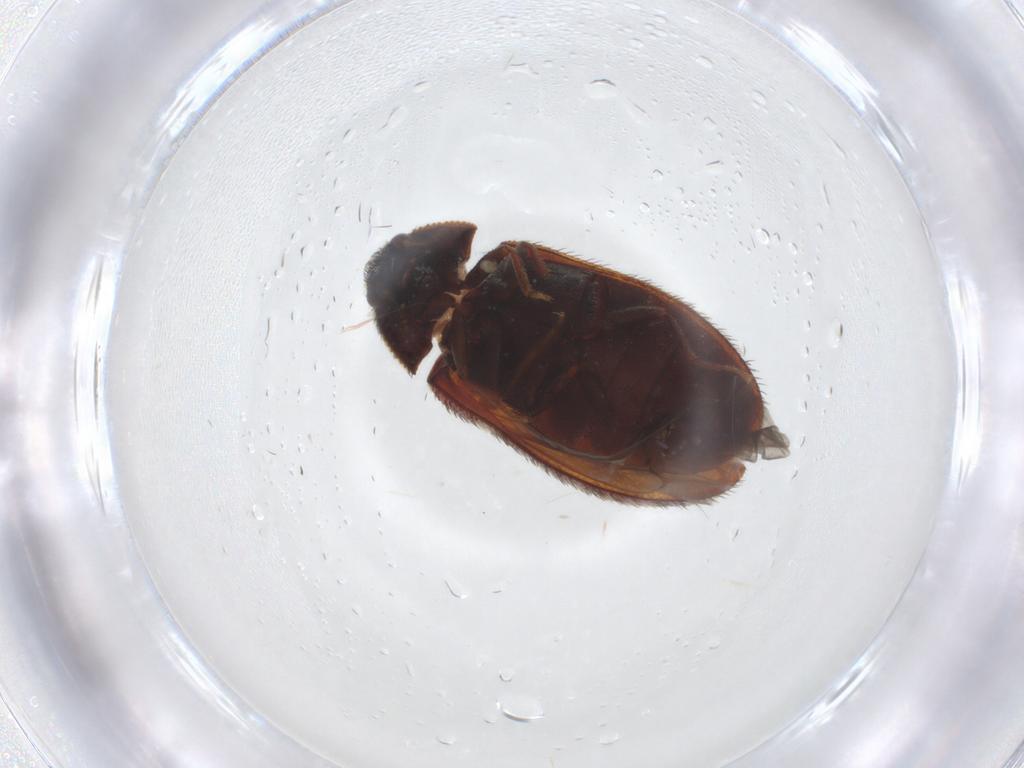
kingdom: Animalia
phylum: Arthropoda
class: Insecta
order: Coleoptera
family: Dermestidae
